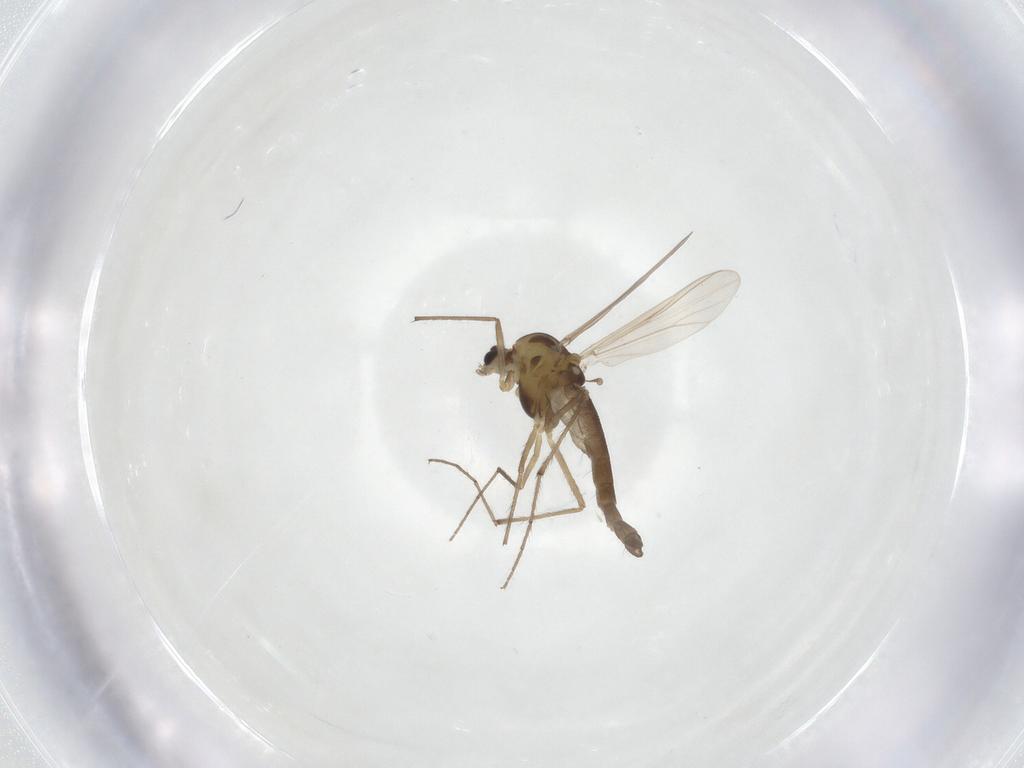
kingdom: Animalia
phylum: Arthropoda
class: Insecta
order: Diptera
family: Chironomidae
